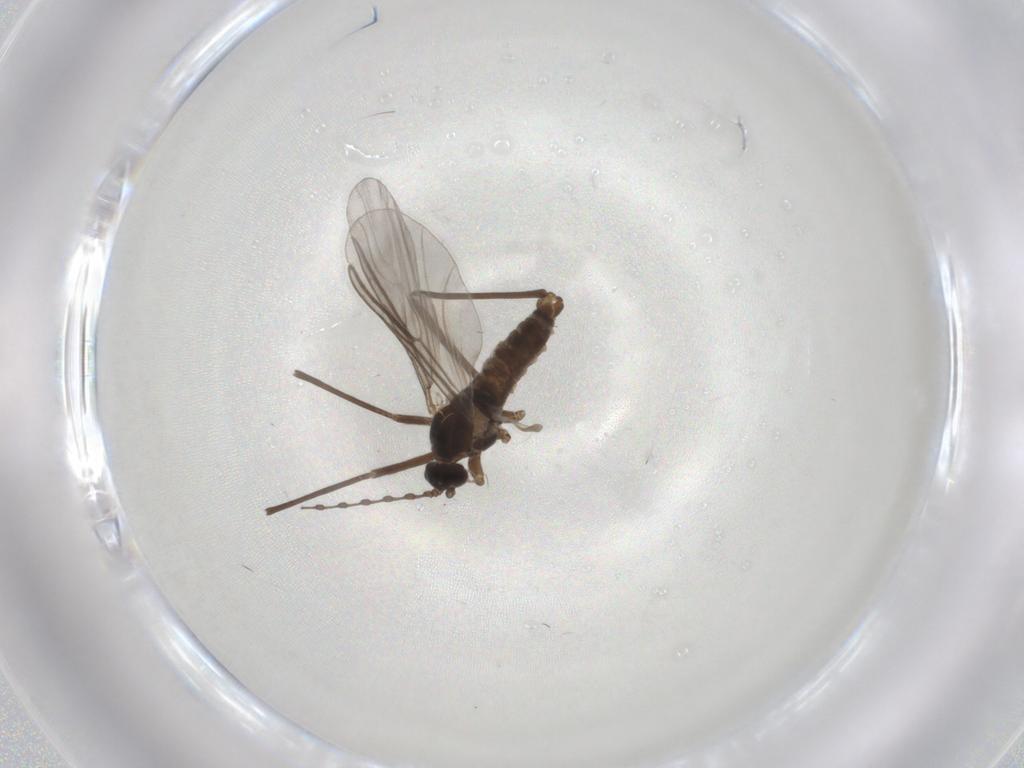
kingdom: Animalia
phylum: Arthropoda
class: Insecta
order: Diptera
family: Cecidomyiidae
